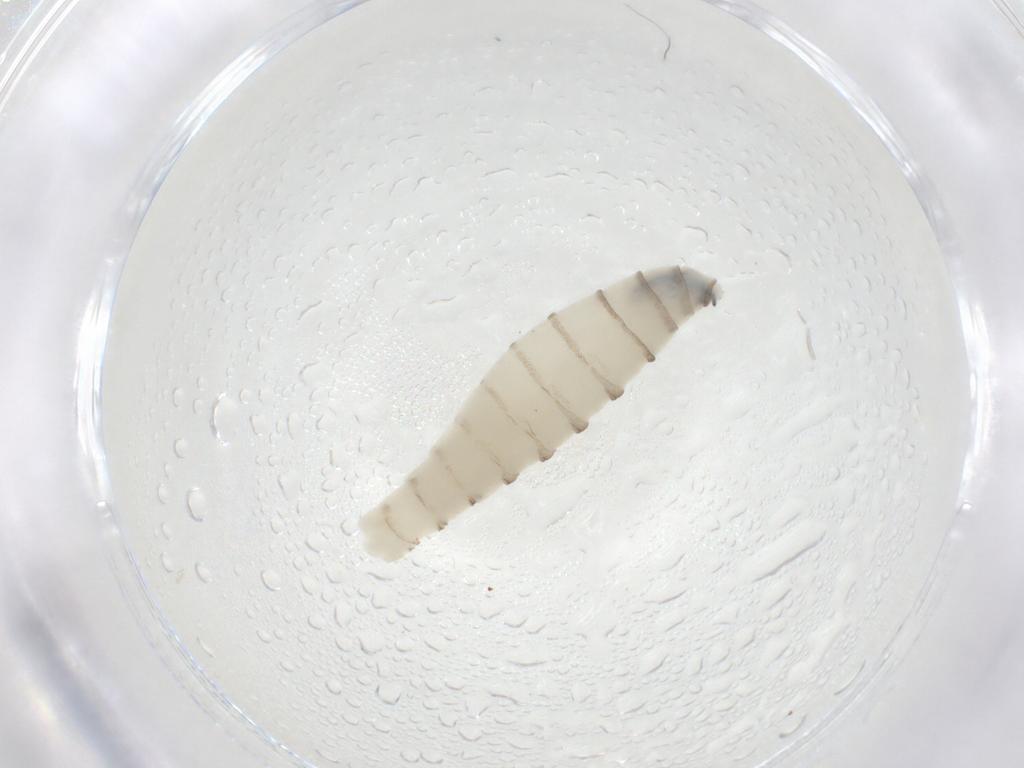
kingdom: Animalia
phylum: Arthropoda
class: Insecta
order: Diptera
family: Sarcophagidae
